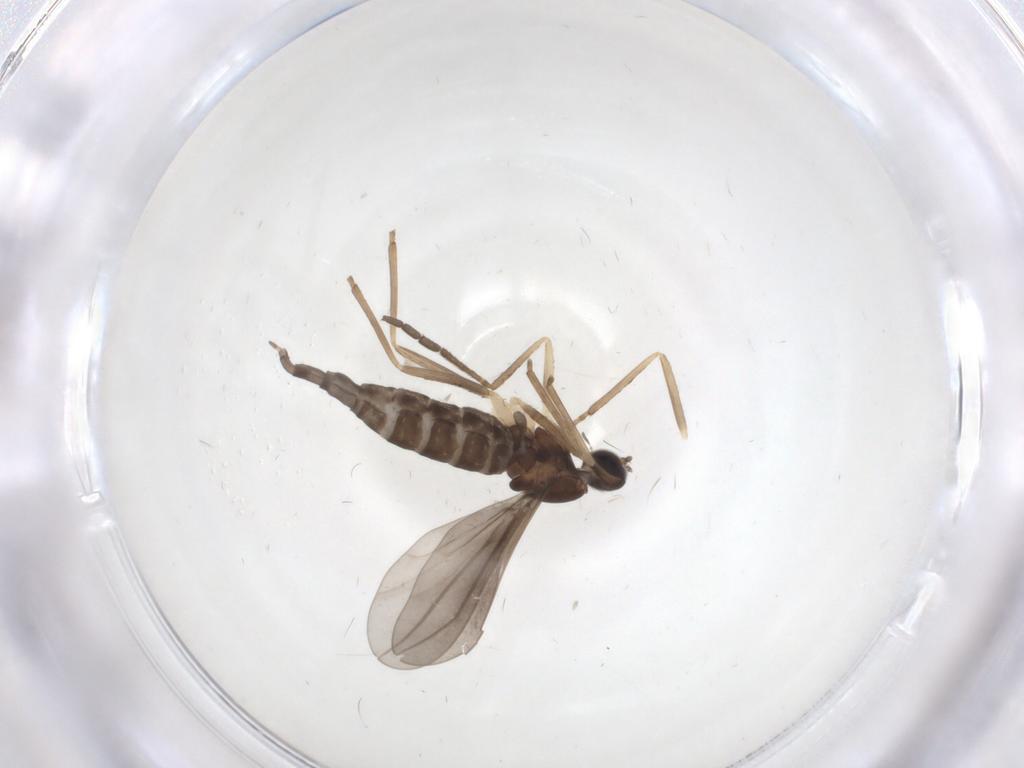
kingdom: Animalia
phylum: Arthropoda
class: Insecta
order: Diptera
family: Cecidomyiidae
